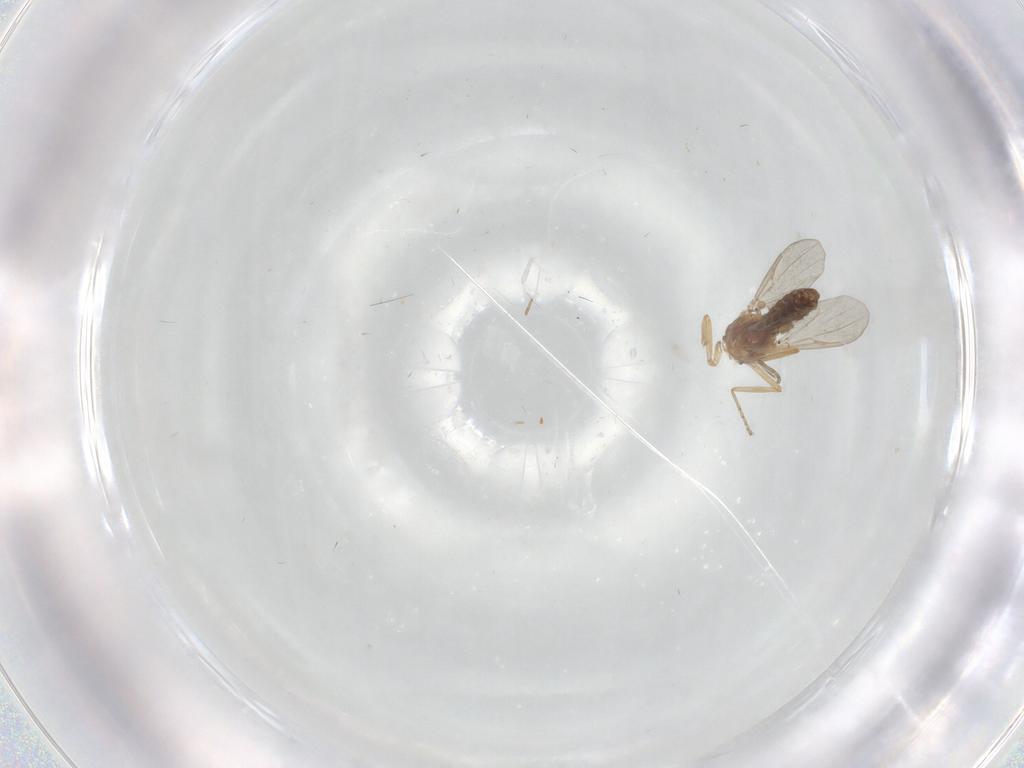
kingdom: Animalia
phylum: Arthropoda
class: Insecta
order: Diptera
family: Ceratopogonidae
